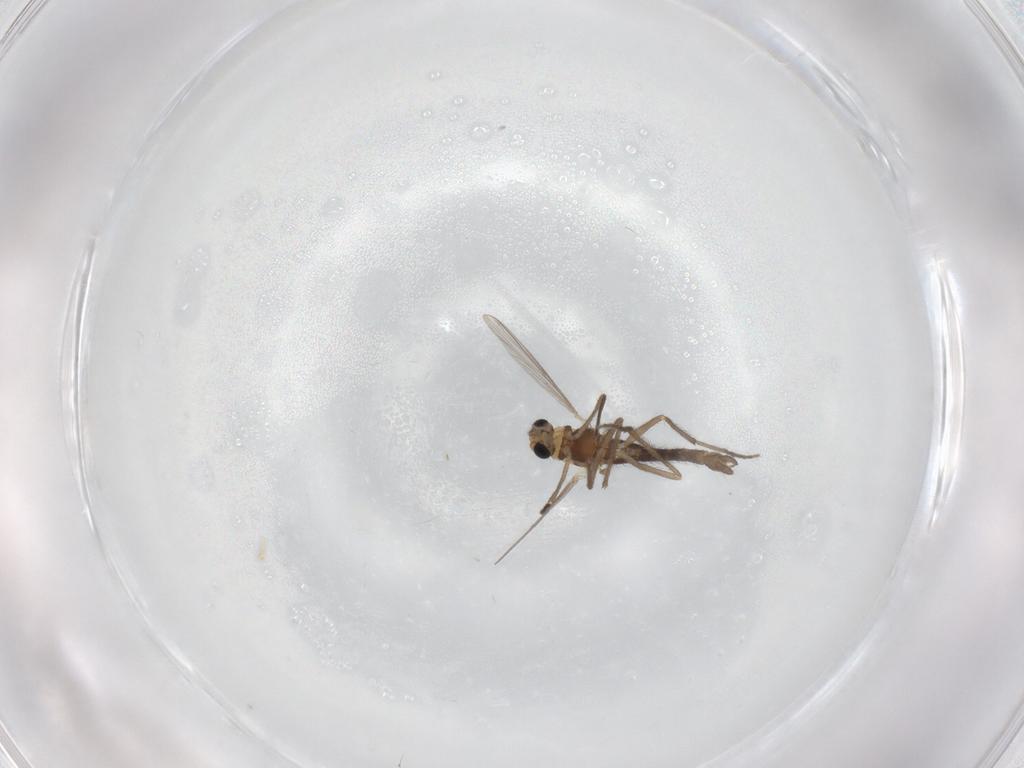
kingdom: Animalia
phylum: Arthropoda
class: Insecta
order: Diptera
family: Chironomidae
